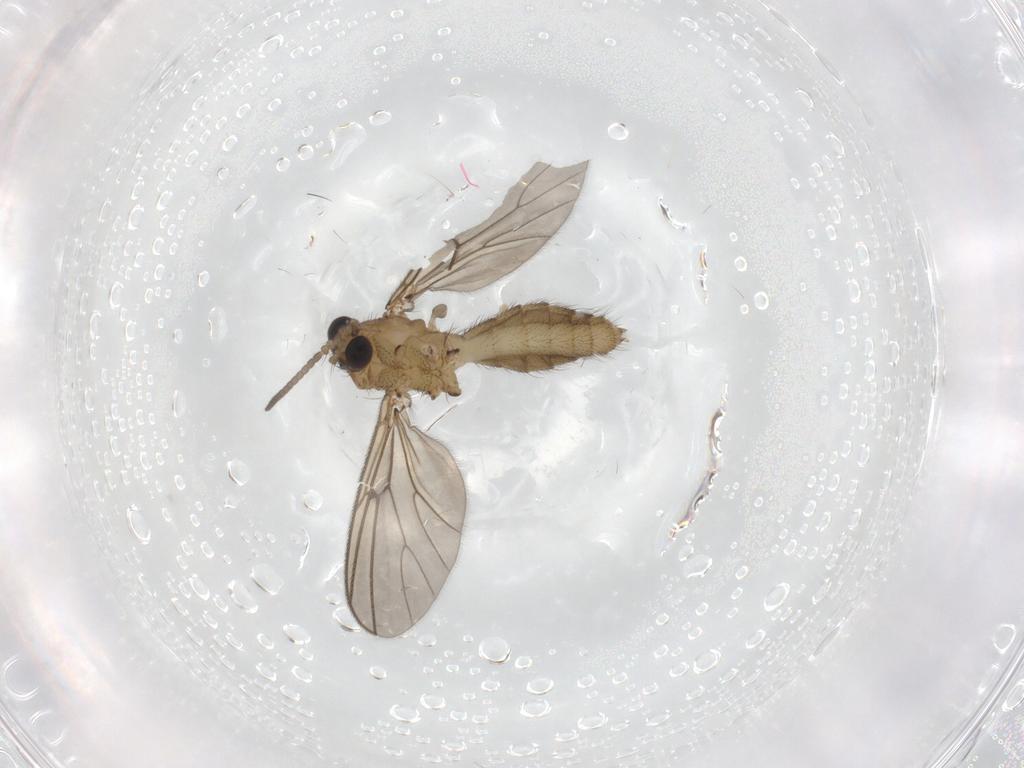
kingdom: Animalia
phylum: Arthropoda
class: Insecta
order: Diptera
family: Mycetophilidae
